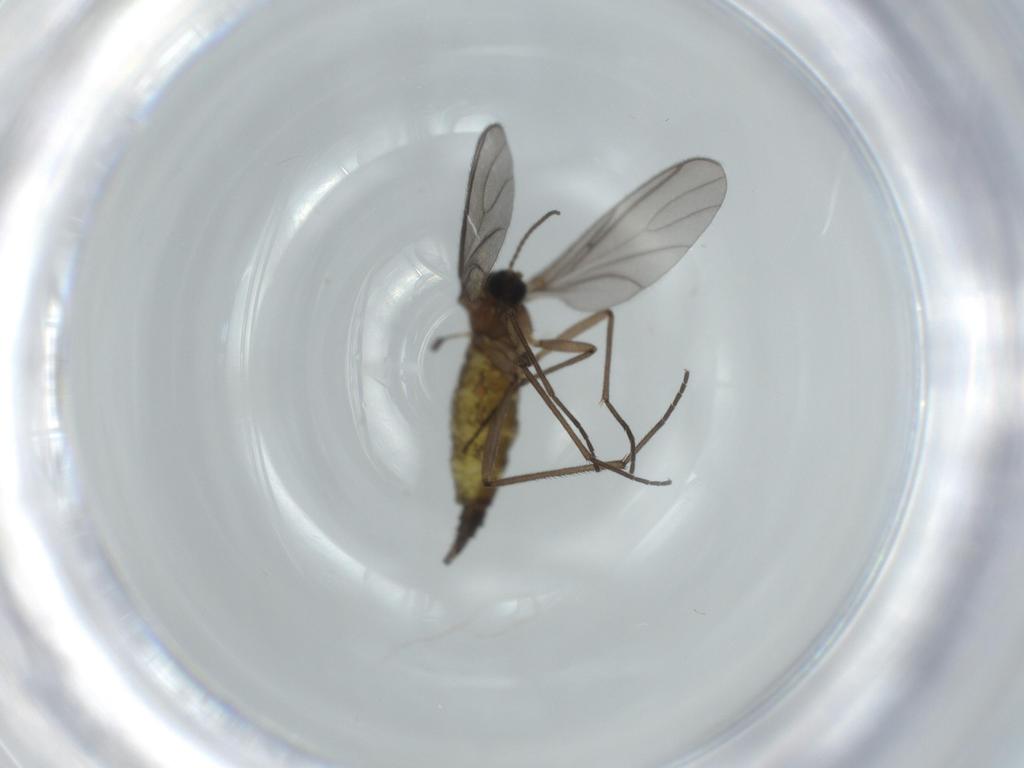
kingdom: Animalia
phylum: Arthropoda
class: Insecta
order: Diptera
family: Sciaridae
